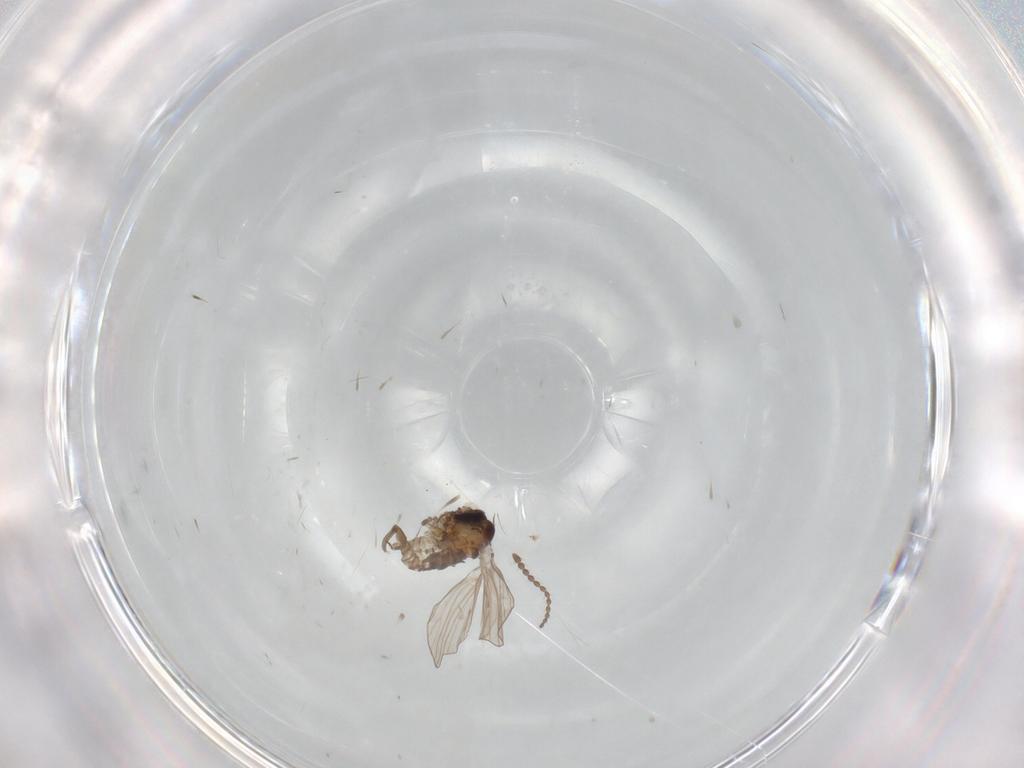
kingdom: Animalia
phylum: Arthropoda
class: Insecta
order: Diptera
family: Psychodidae
